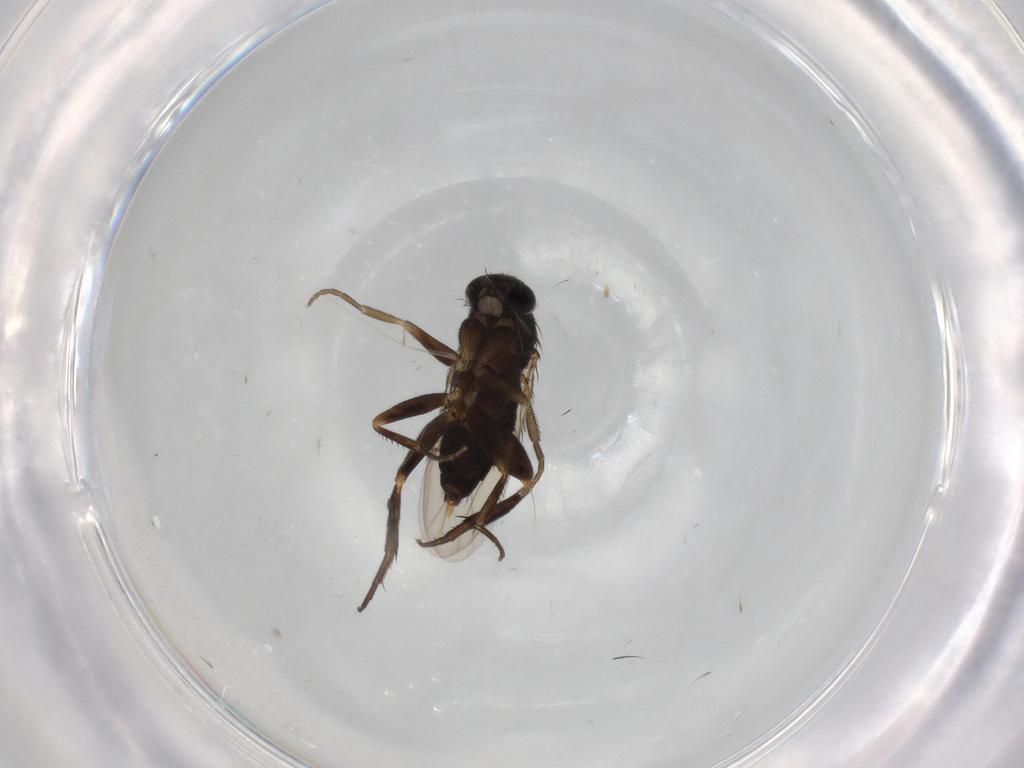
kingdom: Animalia
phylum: Arthropoda
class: Insecta
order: Diptera
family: Phoridae
